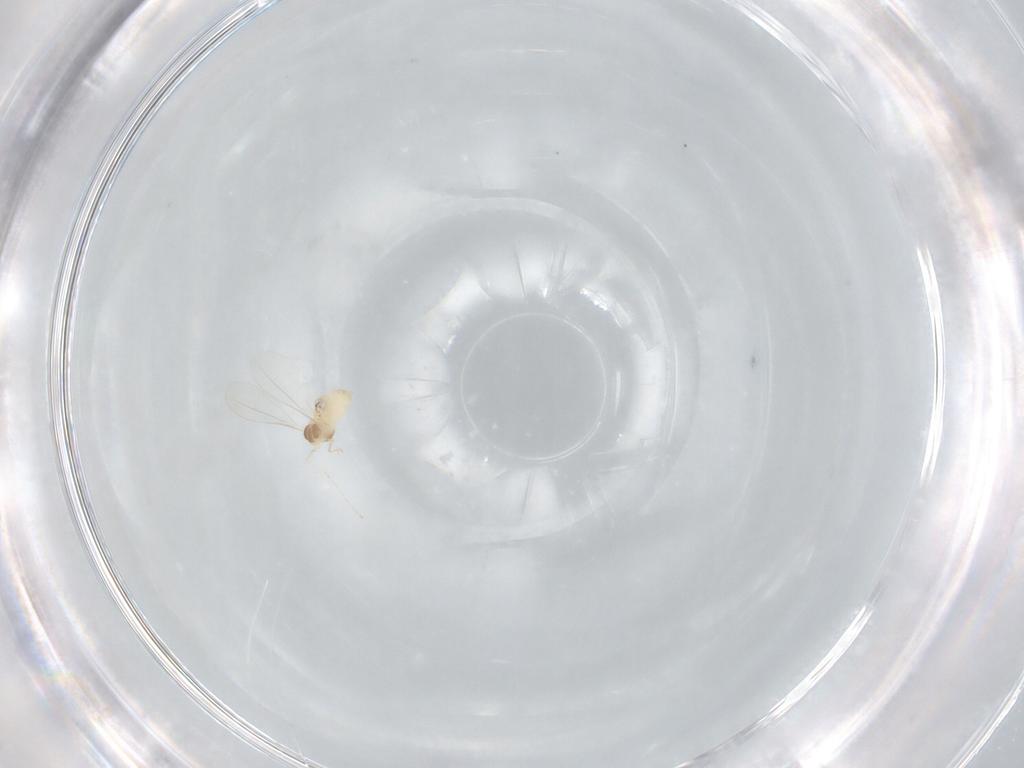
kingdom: Animalia
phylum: Arthropoda
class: Insecta
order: Diptera
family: Cecidomyiidae
